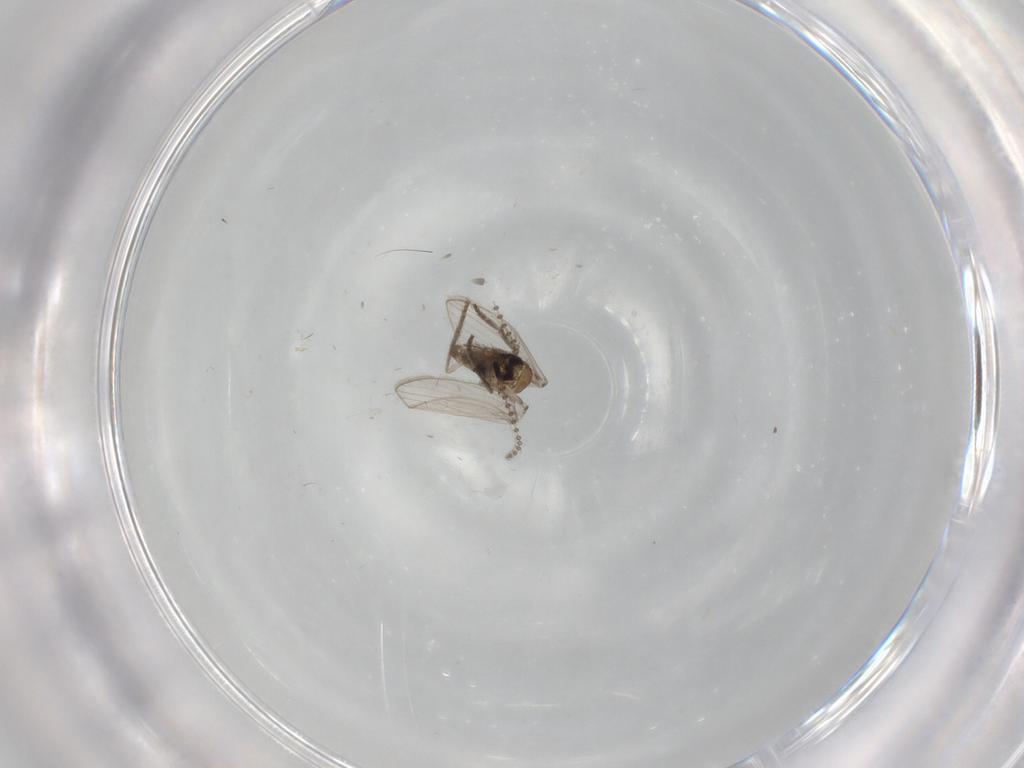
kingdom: Animalia
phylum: Arthropoda
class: Insecta
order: Diptera
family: Psychodidae
